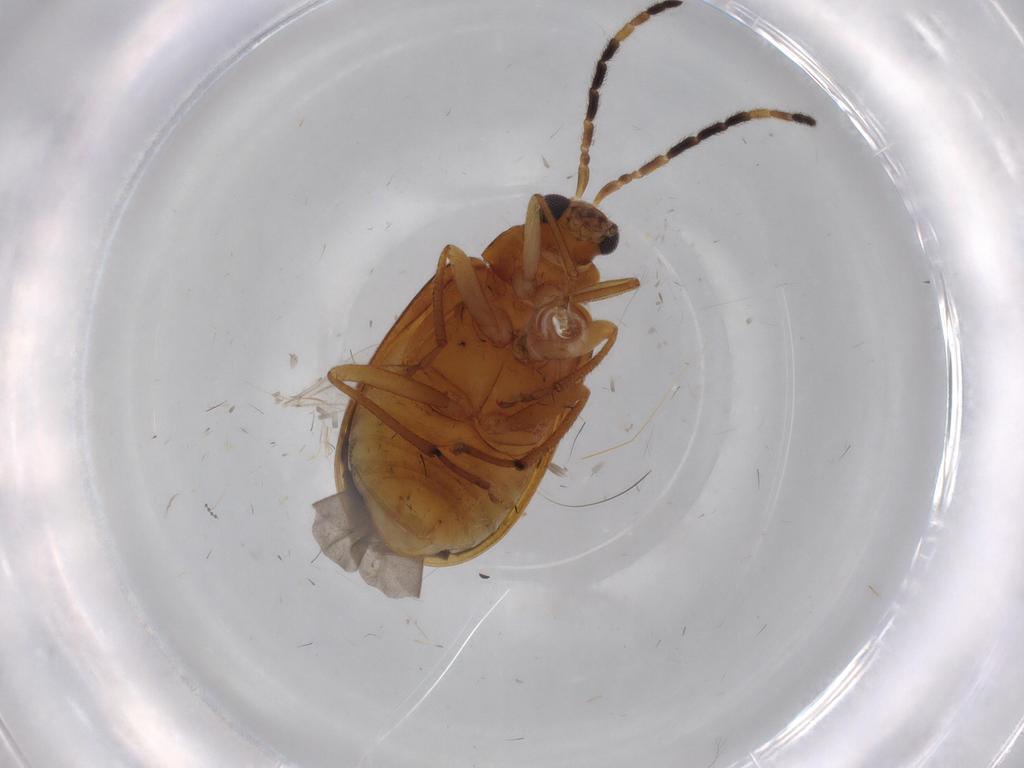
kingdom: Animalia
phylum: Arthropoda
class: Insecta
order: Coleoptera
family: Chrysomelidae
